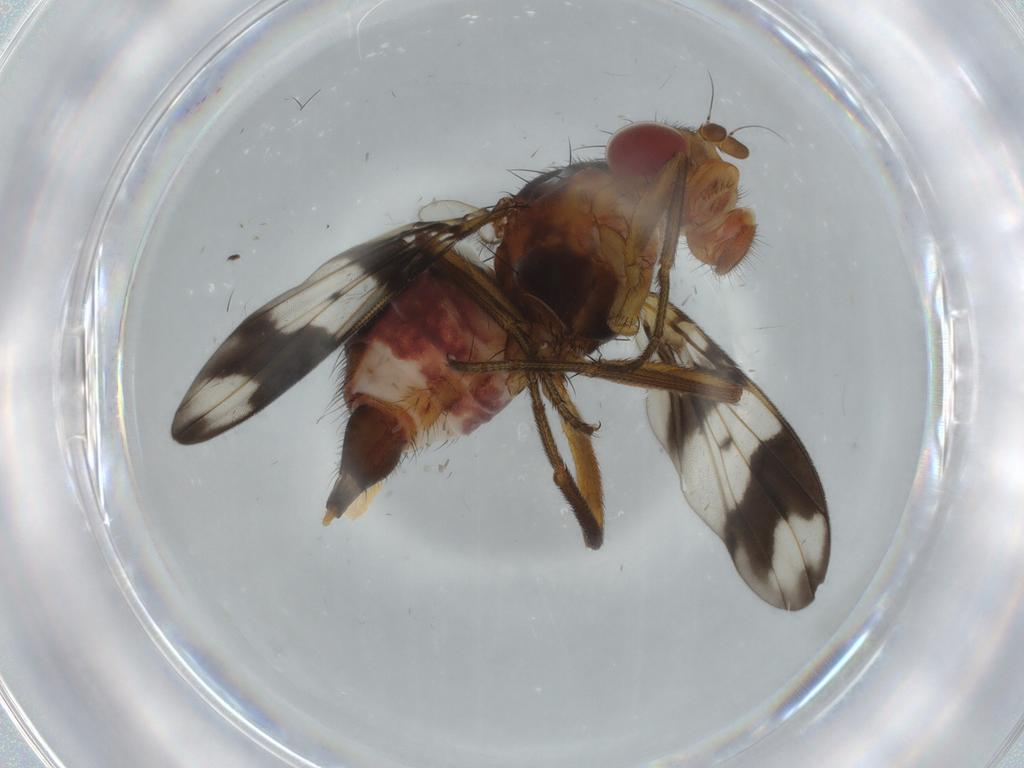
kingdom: Animalia
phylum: Arthropoda
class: Insecta
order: Diptera
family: Richardiidae
